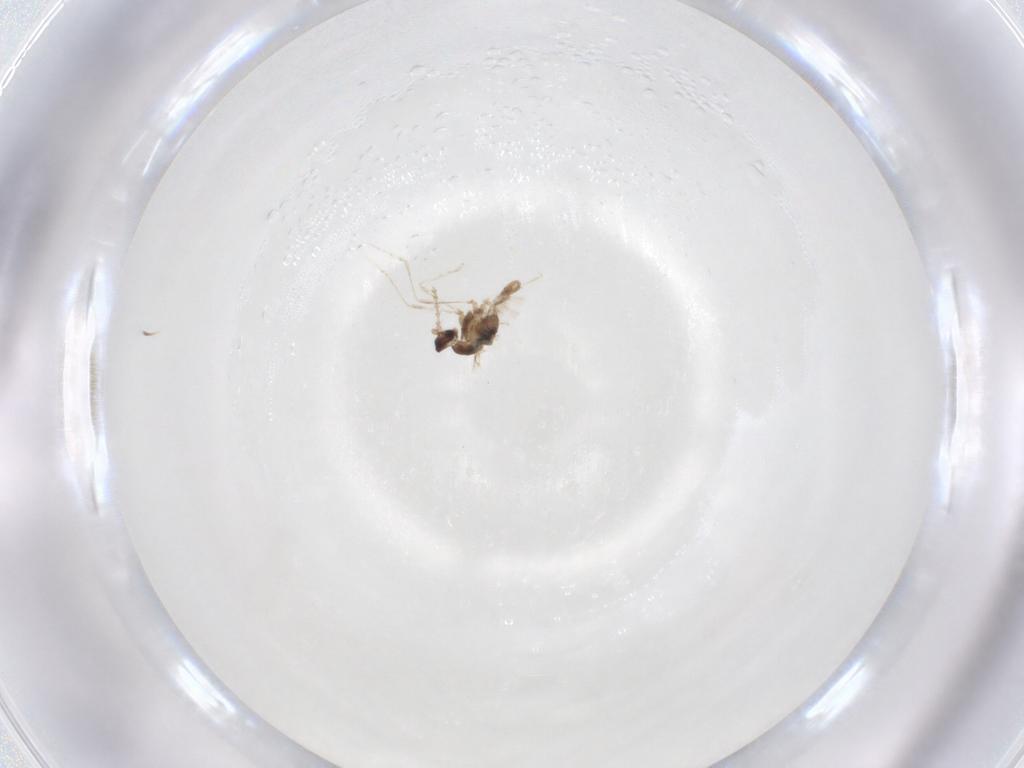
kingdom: Animalia
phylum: Arthropoda
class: Insecta
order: Diptera
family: Cecidomyiidae
